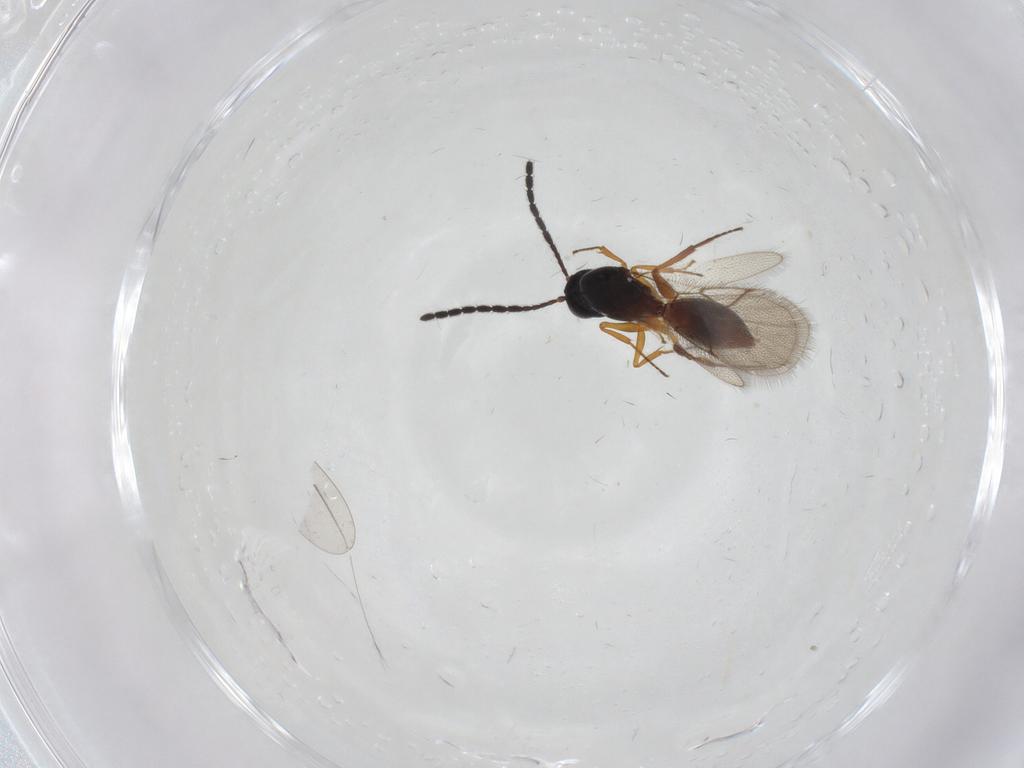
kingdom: Animalia
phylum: Arthropoda
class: Insecta
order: Hymenoptera
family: Figitidae
